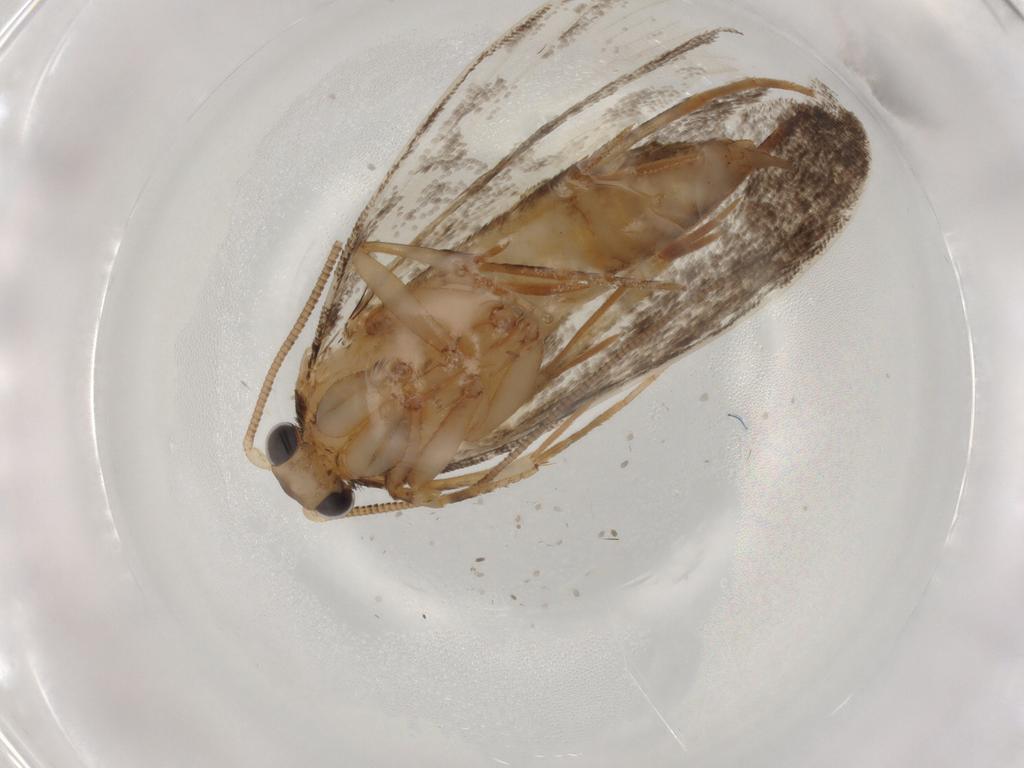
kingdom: Animalia
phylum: Arthropoda
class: Insecta
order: Lepidoptera
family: Tineidae
